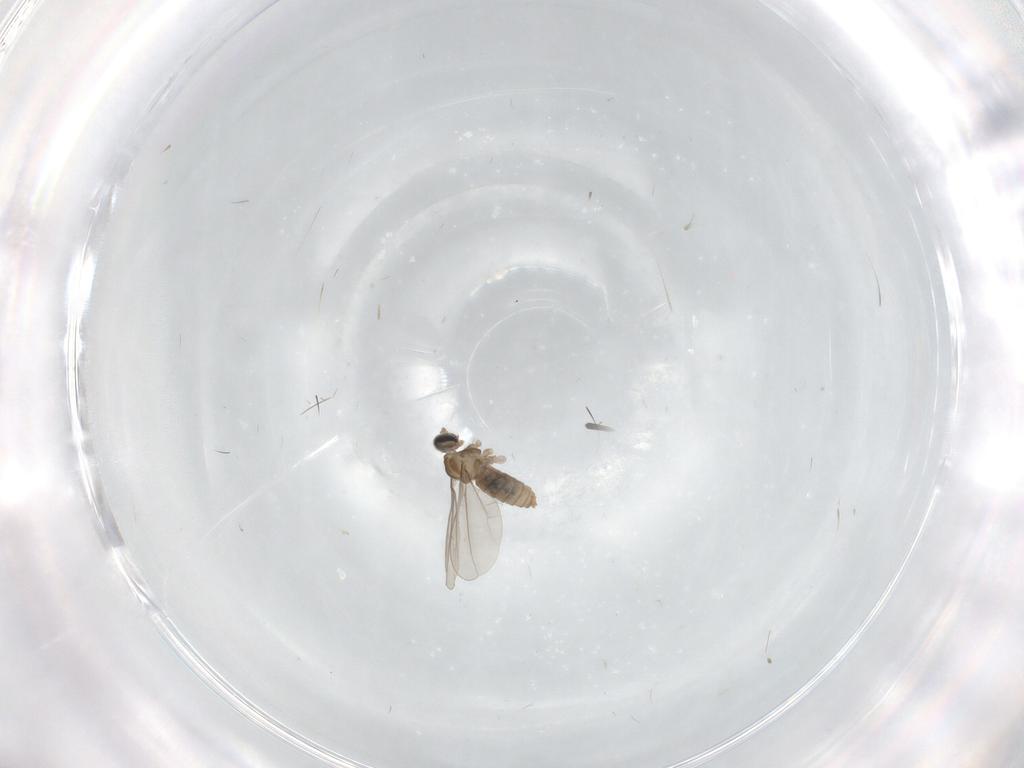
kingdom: Animalia
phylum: Arthropoda
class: Insecta
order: Diptera
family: Cecidomyiidae
